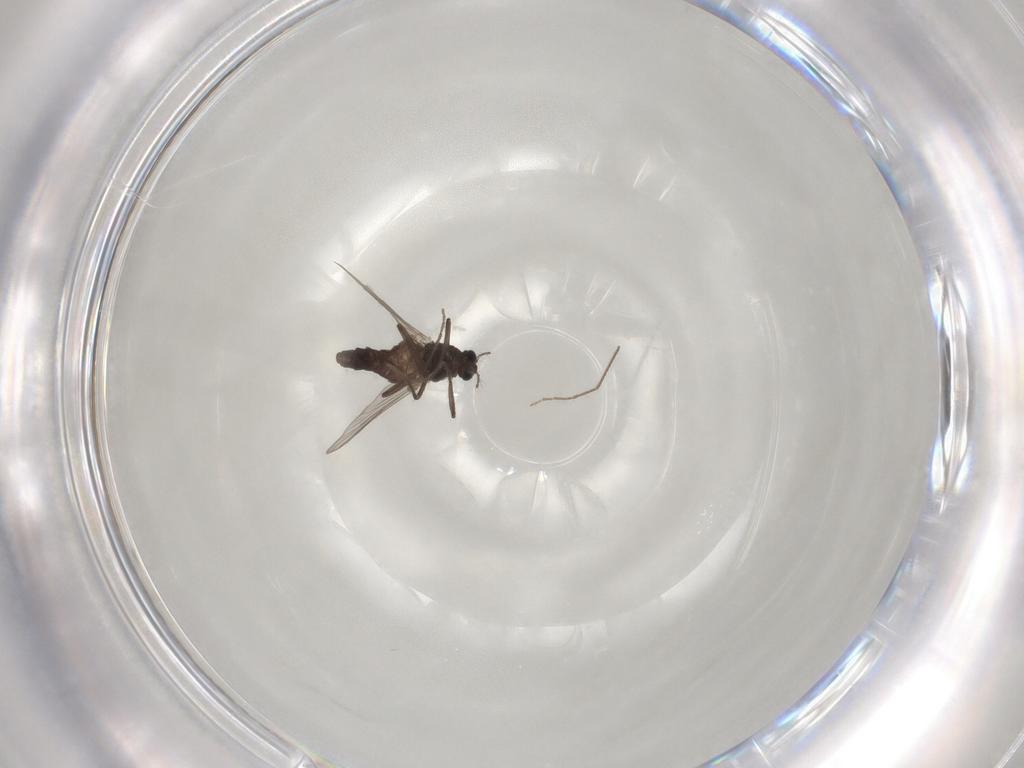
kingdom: Animalia
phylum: Arthropoda
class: Insecta
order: Diptera
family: Chironomidae
